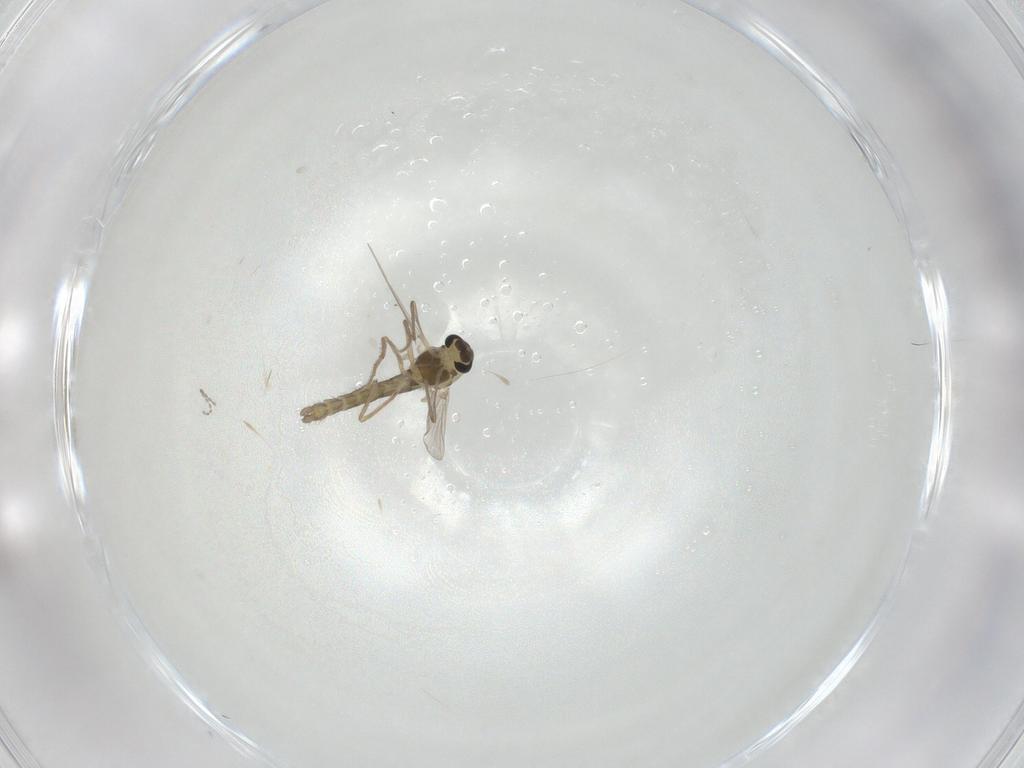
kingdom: Animalia
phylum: Arthropoda
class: Insecta
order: Diptera
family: Chironomidae
